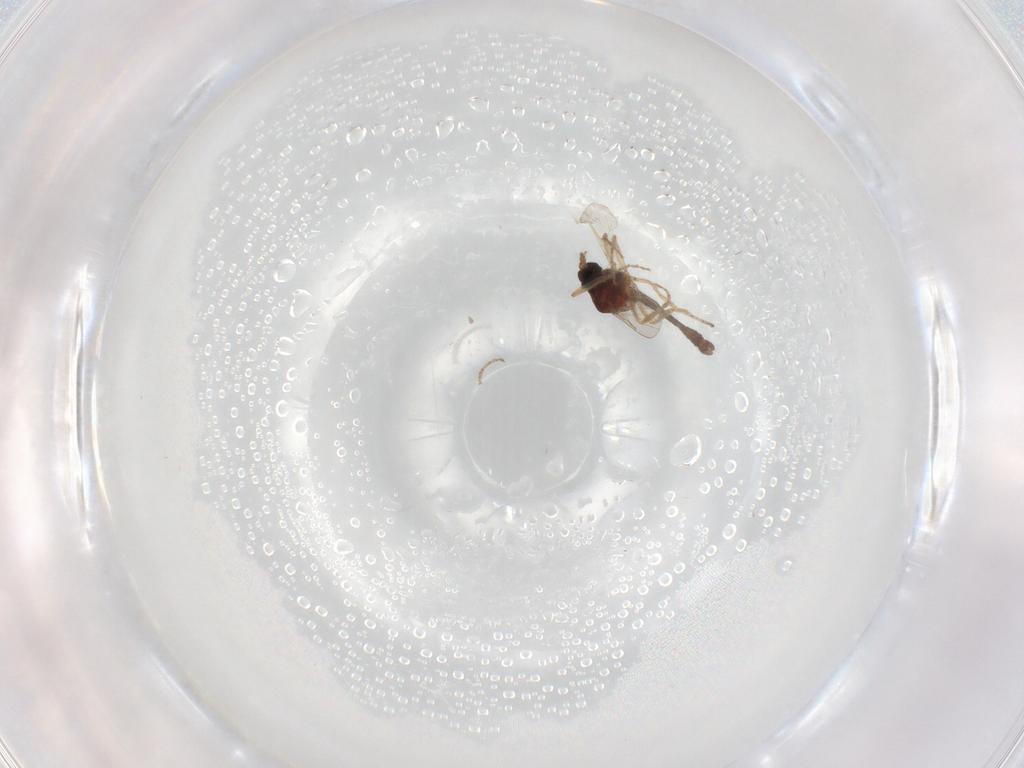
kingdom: Animalia
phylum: Arthropoda
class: Insecta
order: Diptera
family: Ceratopogonidae
